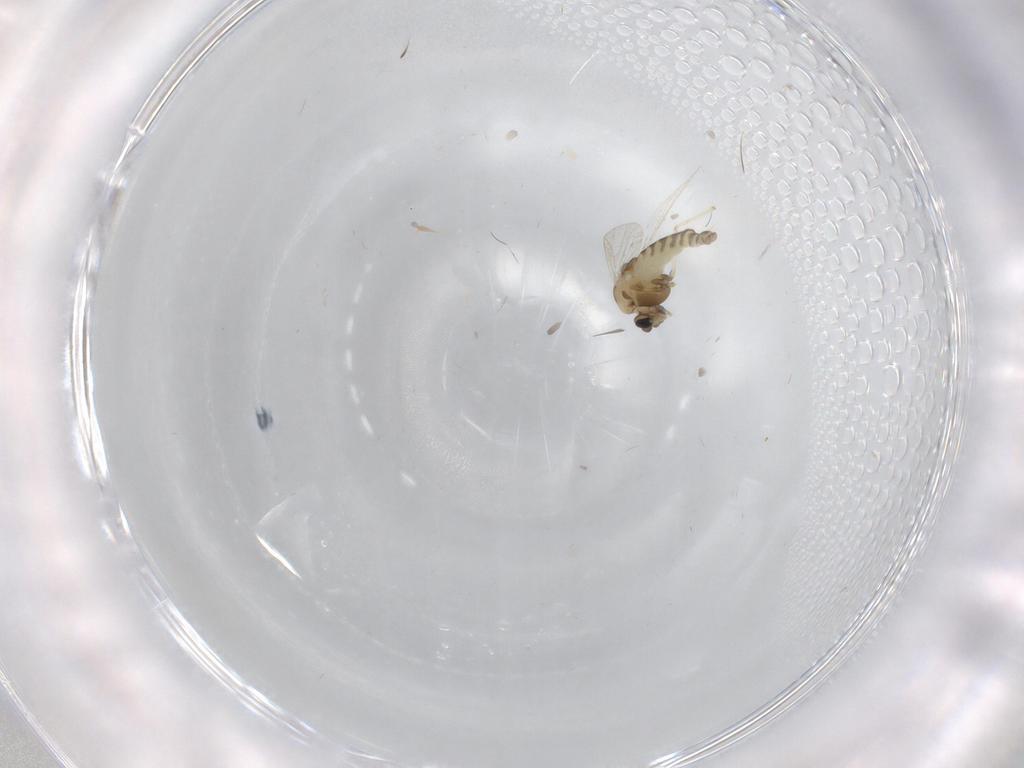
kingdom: Animalia
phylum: Arthropoda
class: Insecta
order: Diptera
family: Chironomidae
